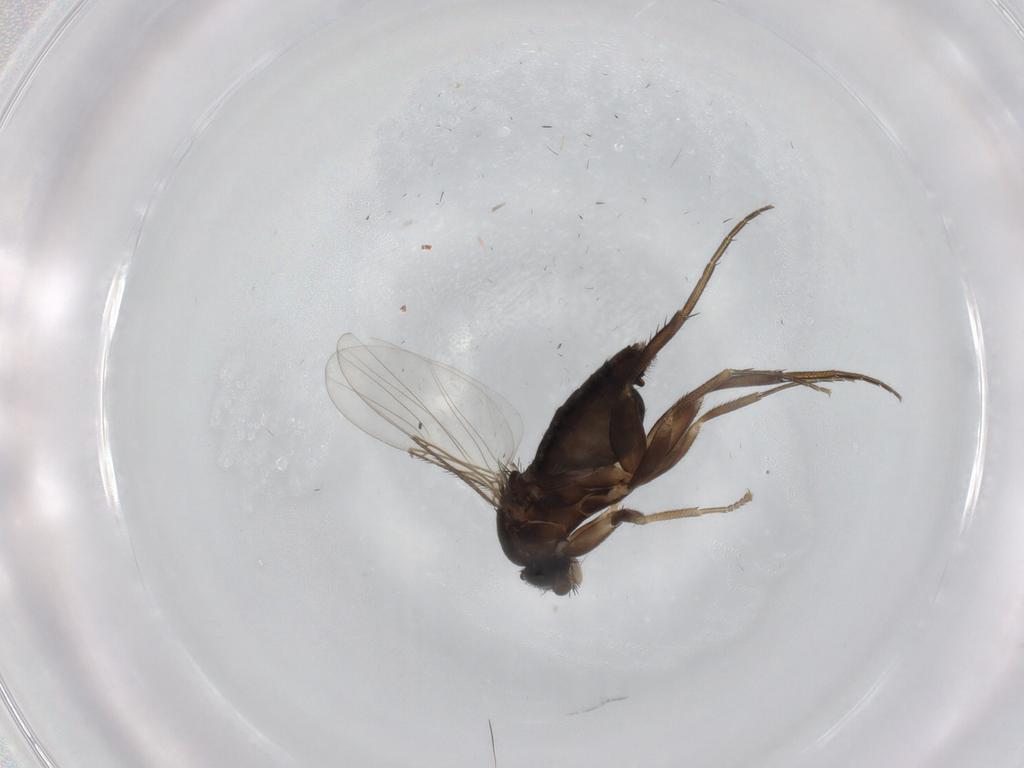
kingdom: Animalia
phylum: Arthropoda
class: Insecta
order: Diptera
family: Phoridae
